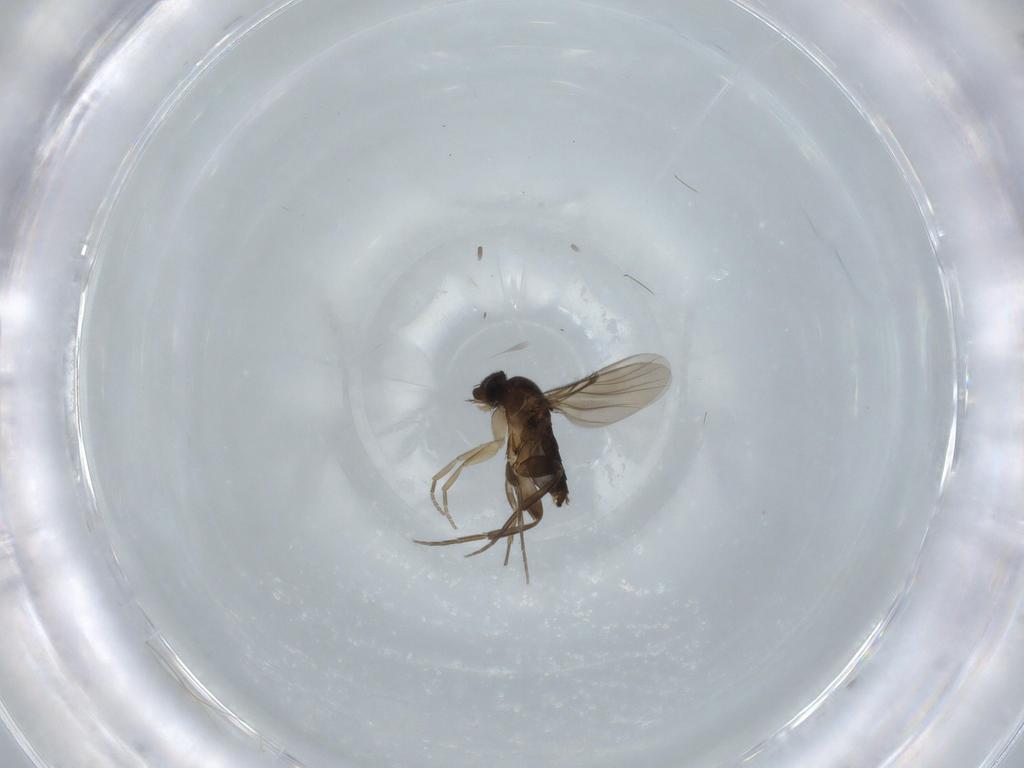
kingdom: Animalia
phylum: Arthropoda
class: Insecta
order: Diptera
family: Phoridae
